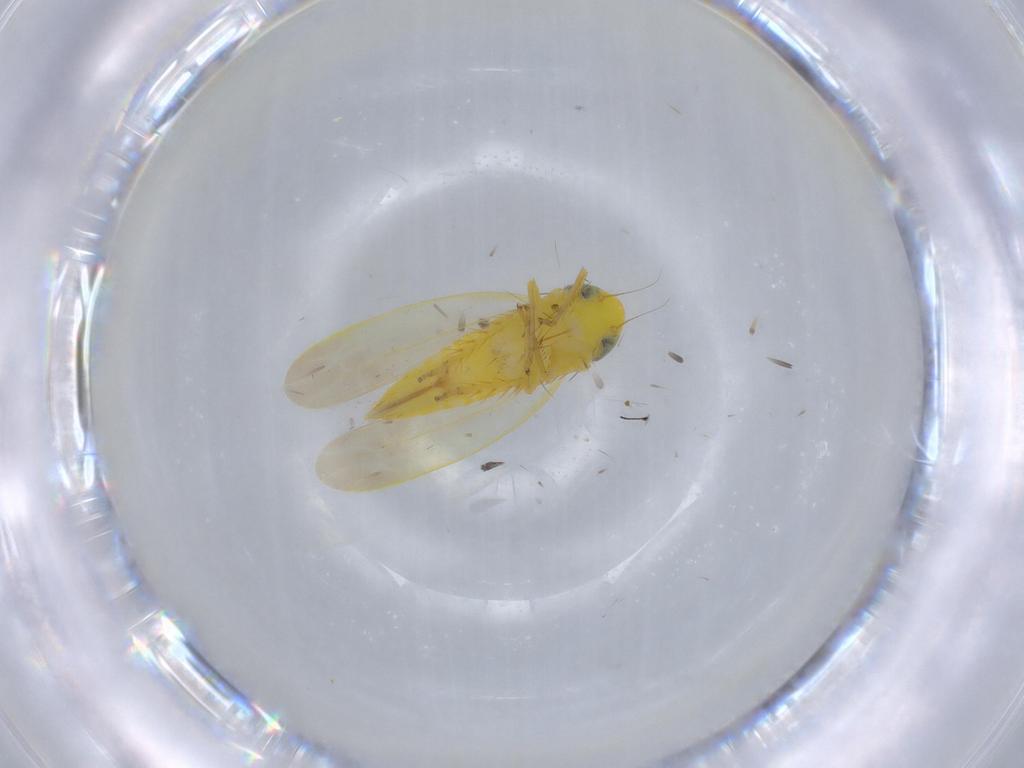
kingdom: Animalia
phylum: Arthropoda
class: Insecta
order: Hemiptera
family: Cicadellidae
